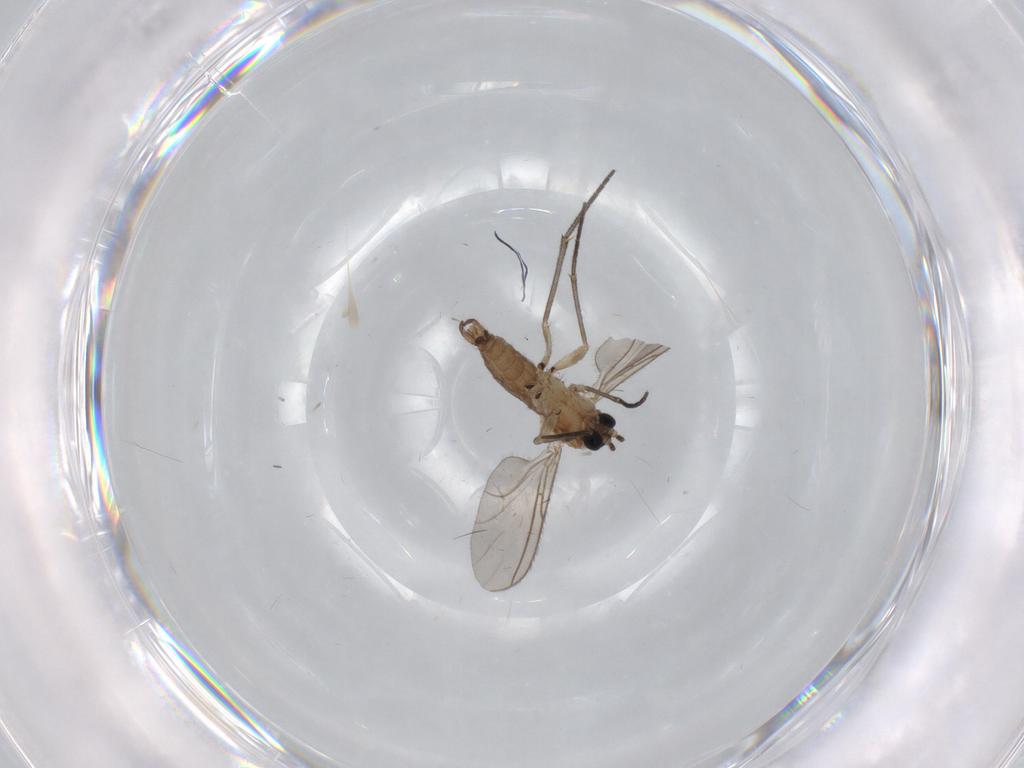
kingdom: Animalia
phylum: Arthropoda
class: Insecta
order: Diptera
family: Sciaridae
